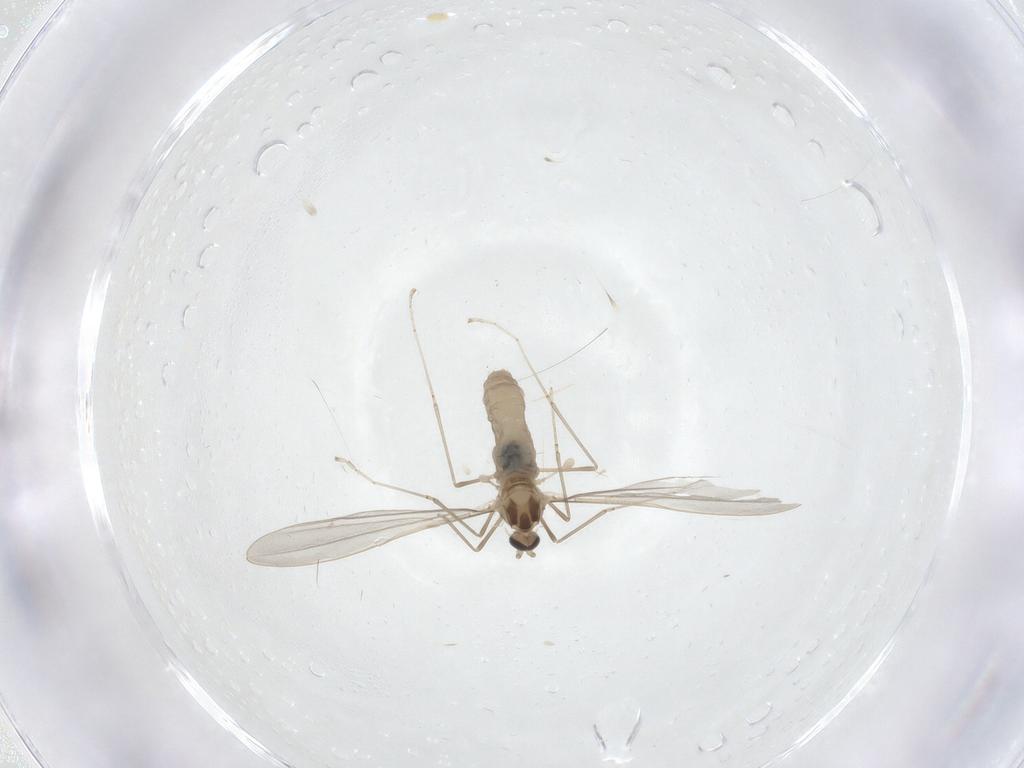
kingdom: Animalia
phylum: Arthropoda
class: Insecta
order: Diptera
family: Cecidomyiidae
